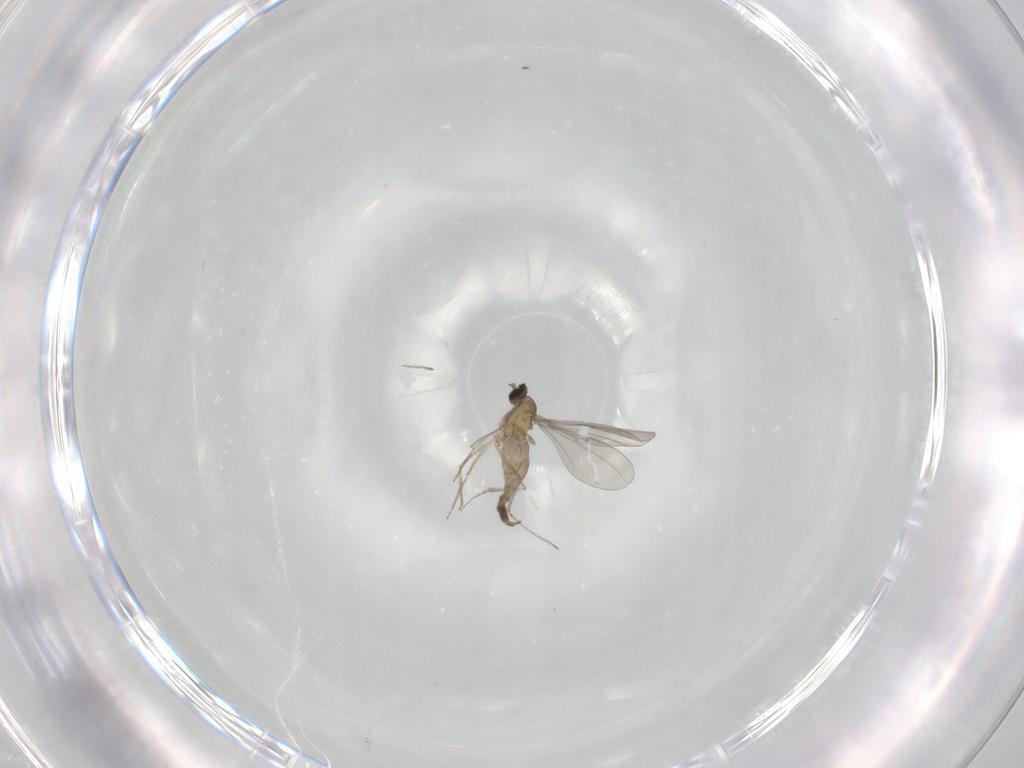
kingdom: Animalia
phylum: Arthropoda
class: Insecta
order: Diptera
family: Cecidomyiidae
